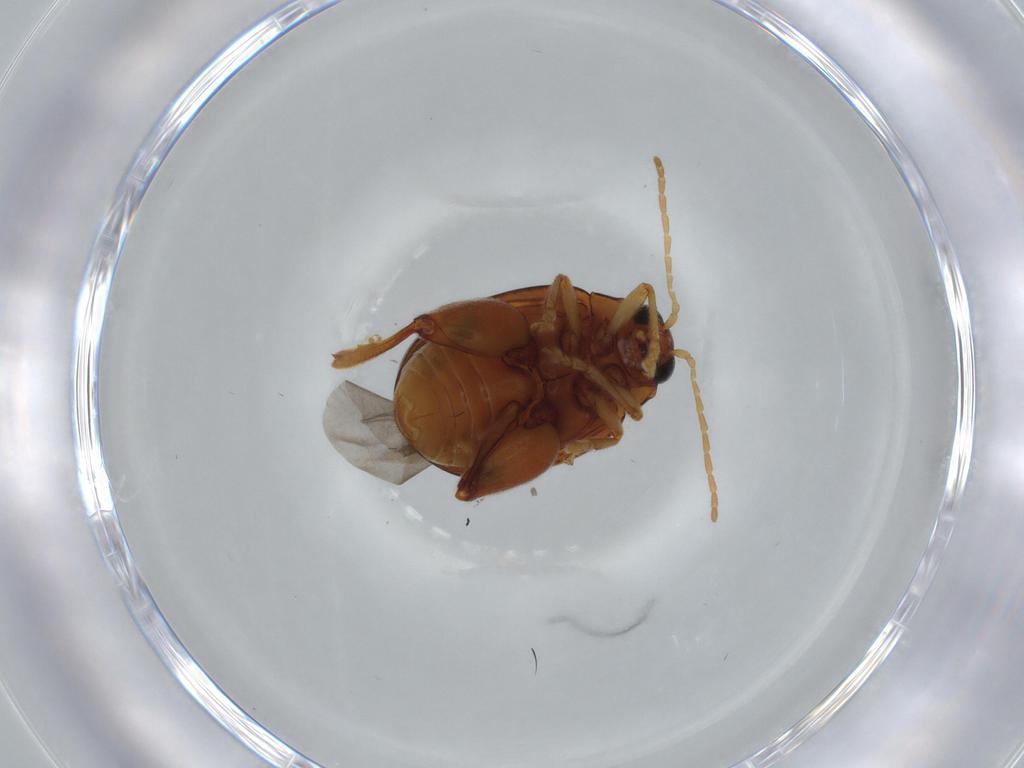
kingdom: Animalia
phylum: Arthropoda
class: Insecta
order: Coleoptera
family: Chrysomelidae
